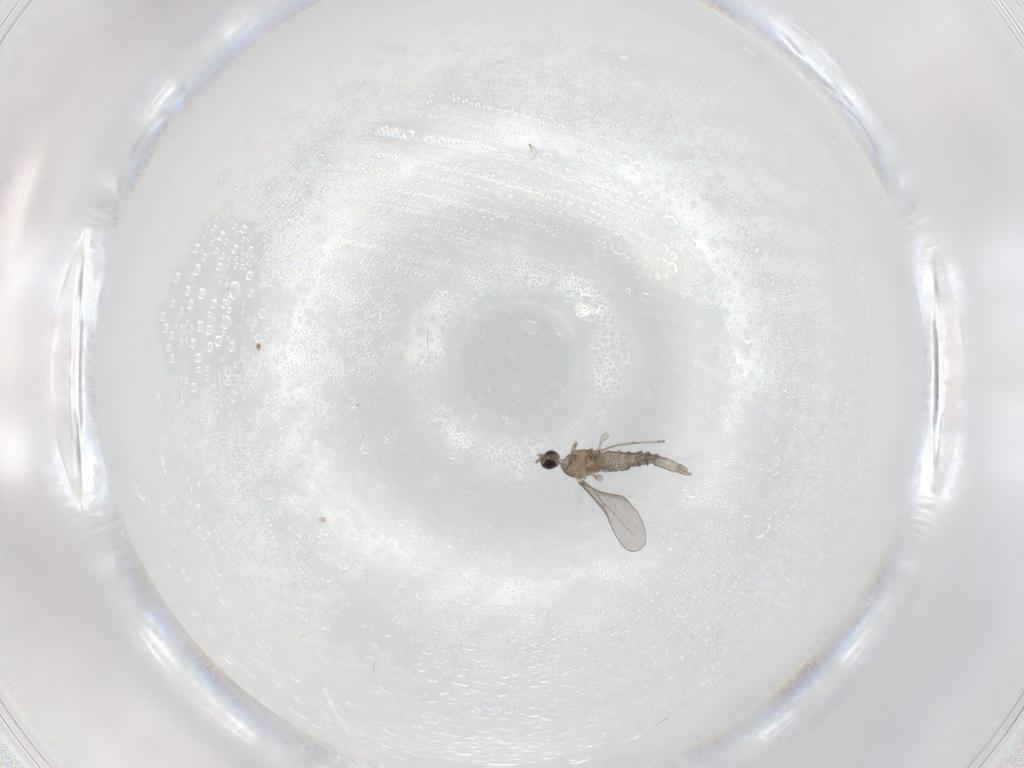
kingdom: Animalia
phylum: Arthropoda
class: Insecta
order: Diptera
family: Cecidomyiidae
